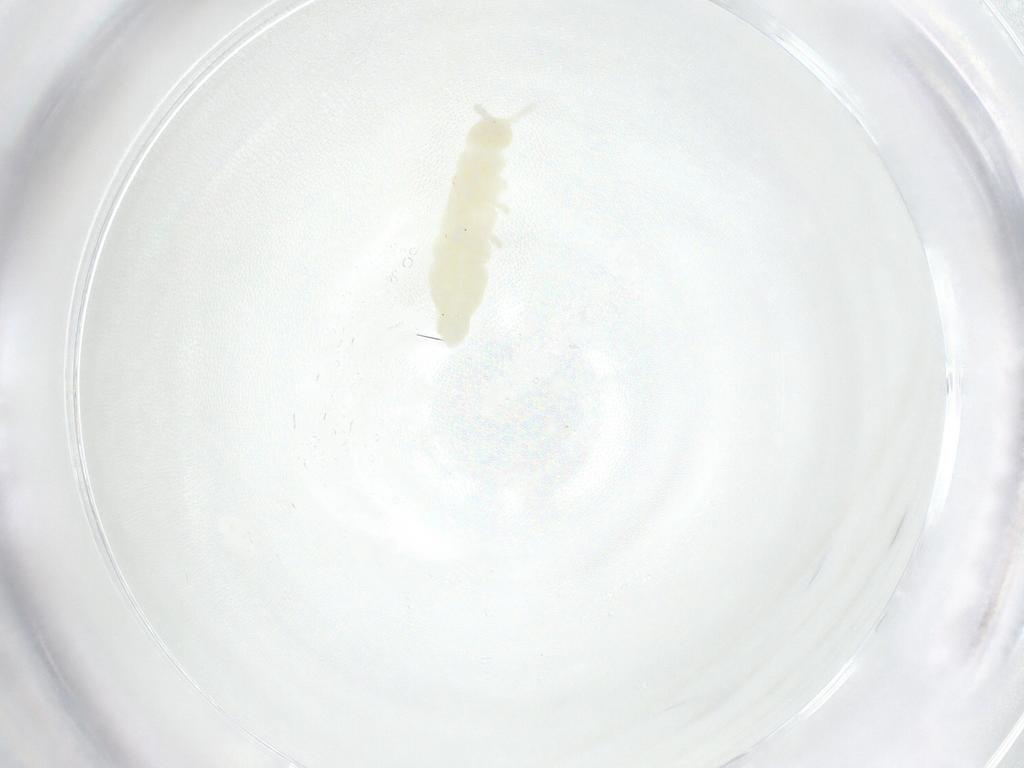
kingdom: Animalia
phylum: Arthropoda
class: Collembola
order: Poduromorpha
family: Onychiuridae
